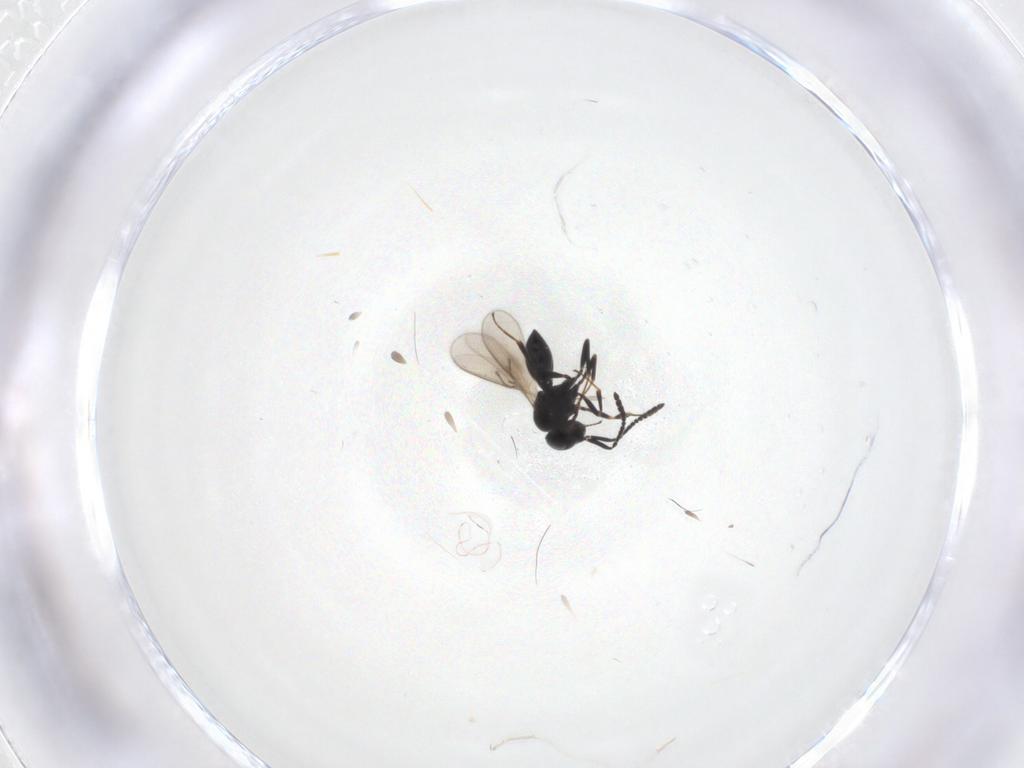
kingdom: Animalia
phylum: Arthropoda
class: Insecta
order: Hymenoptera
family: Scelionidae
